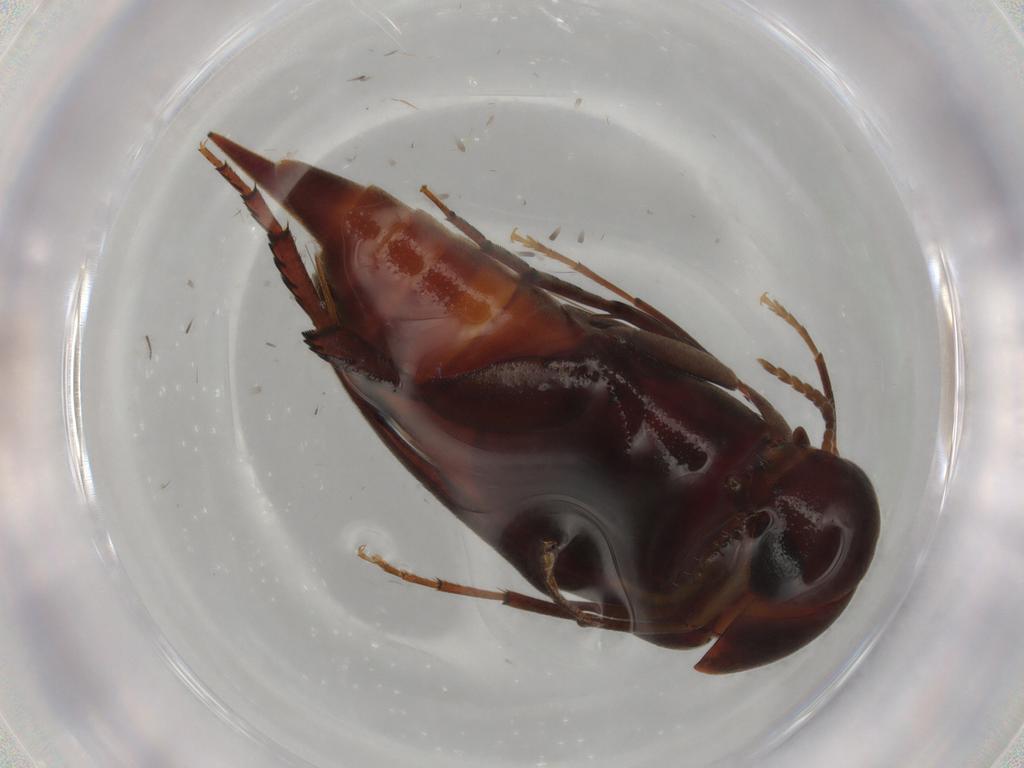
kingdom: Animalia
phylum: Arthropoda
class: Insecta
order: Coleoptera
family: Mordellidae
